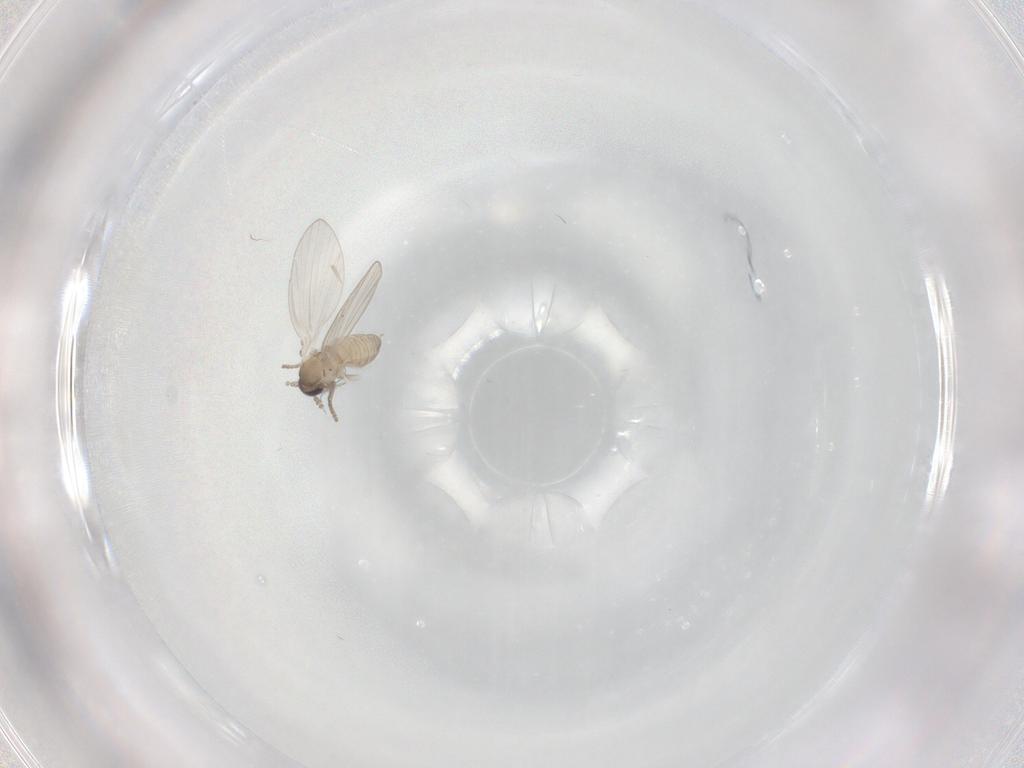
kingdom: Animalia
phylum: Arthropoda
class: Insecta
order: Diptera
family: Psychodidae
